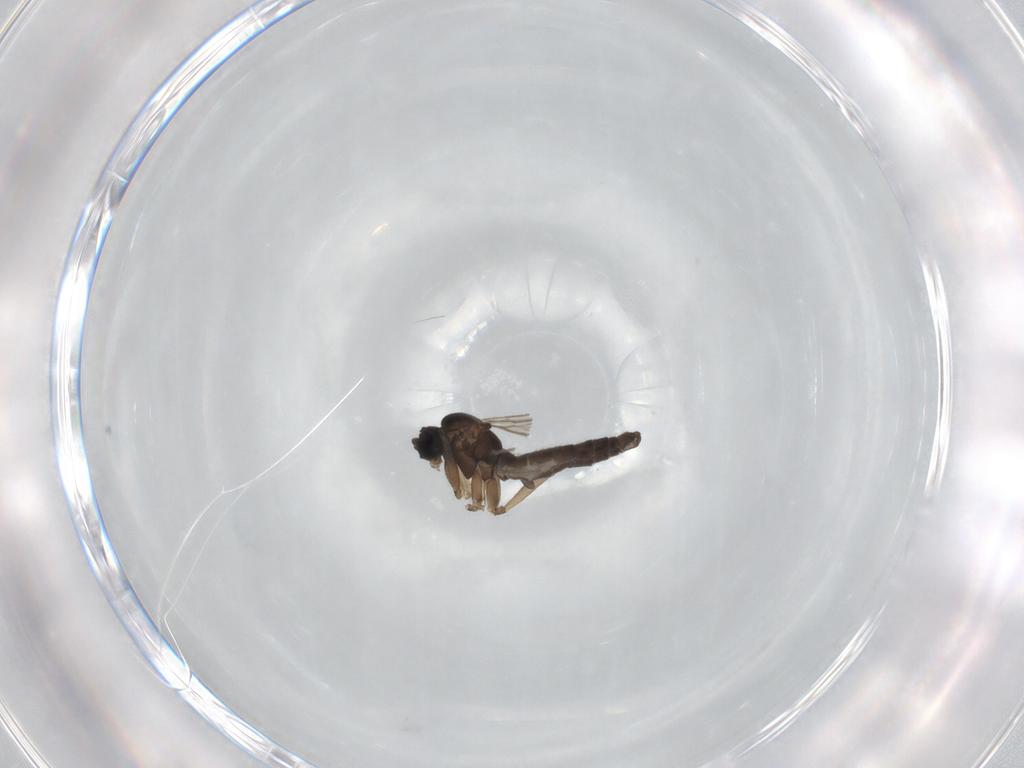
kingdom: Animalia
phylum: Arthropoda
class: Insecta
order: Diptera
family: Sciaridae
